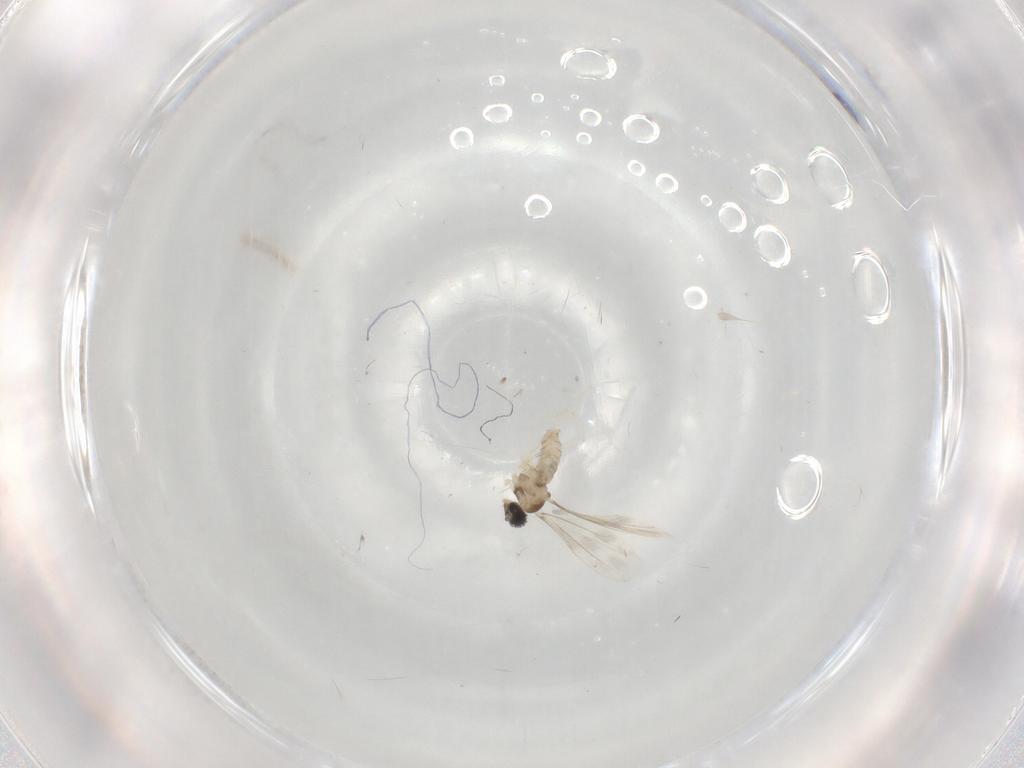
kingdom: Animalia
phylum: Arthropoda
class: Insecta
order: Diptera
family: Cecidomyiidae
